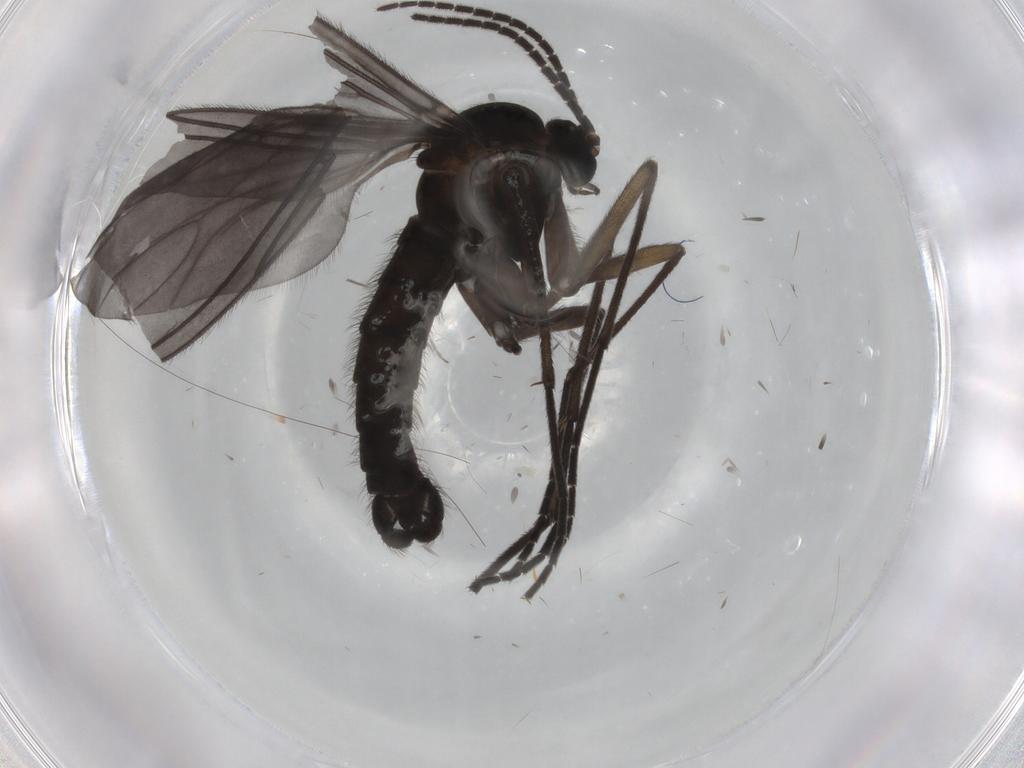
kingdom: Animalia
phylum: Arthropoda
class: Insecta
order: Diptera
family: Sciaridae
